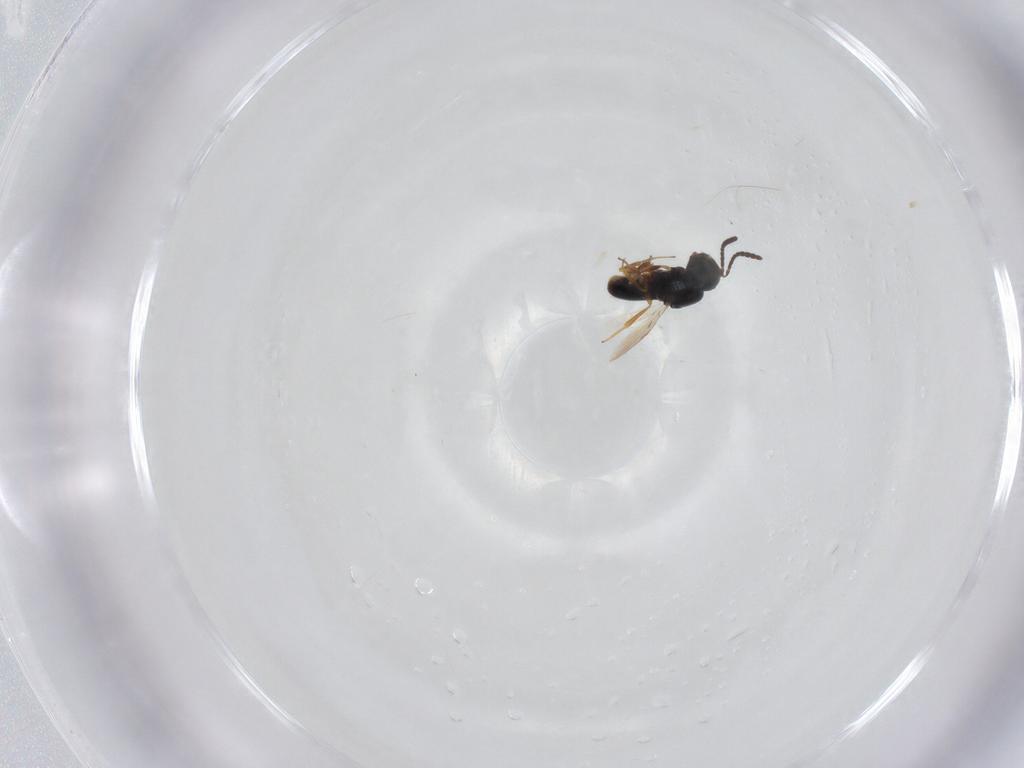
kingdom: Animalia
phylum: Arthropoda
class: Insecta
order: Hymenoptera
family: Scelionidae
